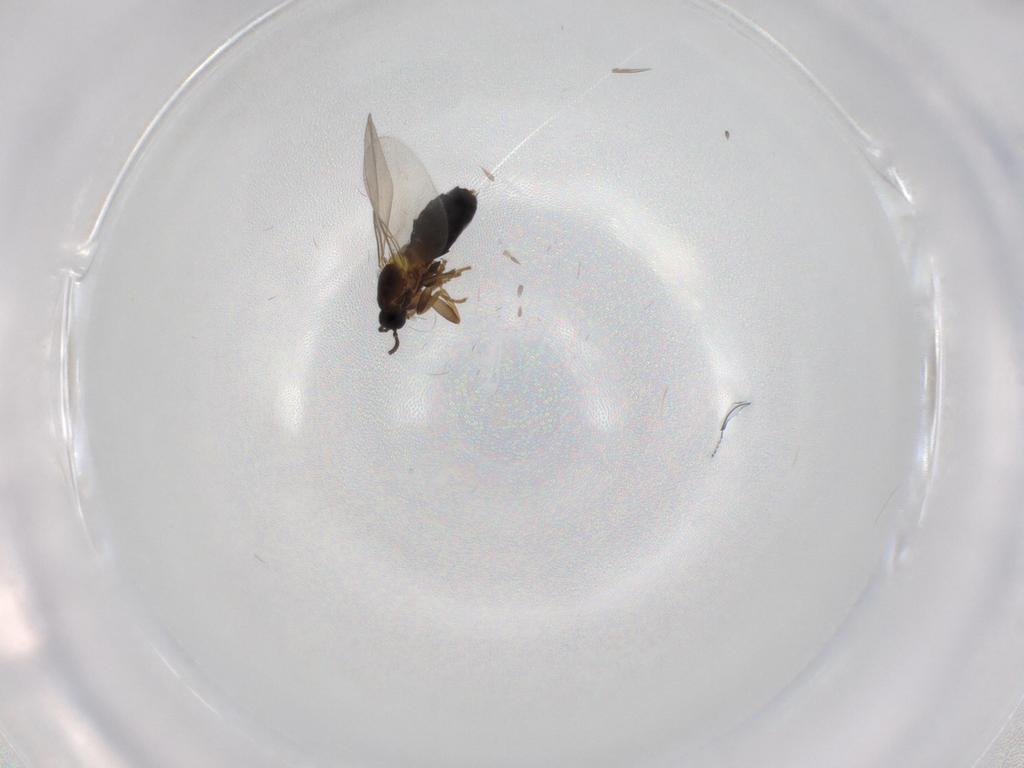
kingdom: Animalia
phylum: Arthropoda
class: Insecta
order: Diptera
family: Scatopsidae
